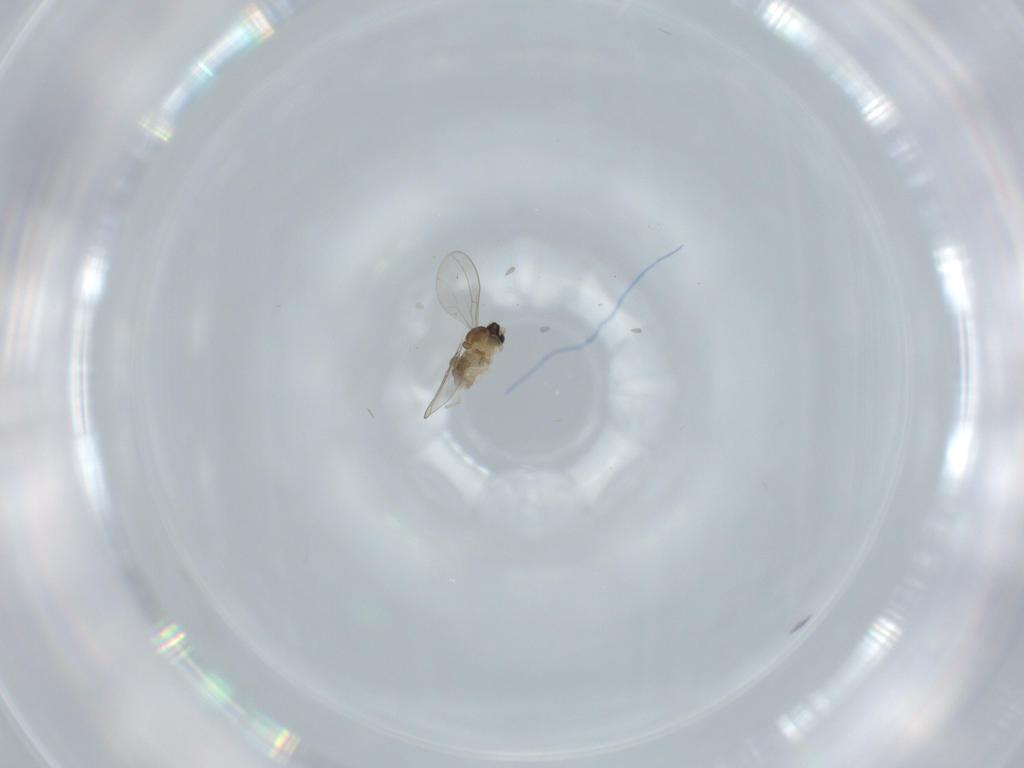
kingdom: Animalia
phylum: Arthropoda
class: Insecta
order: Diptera
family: Cecidomyiidae
